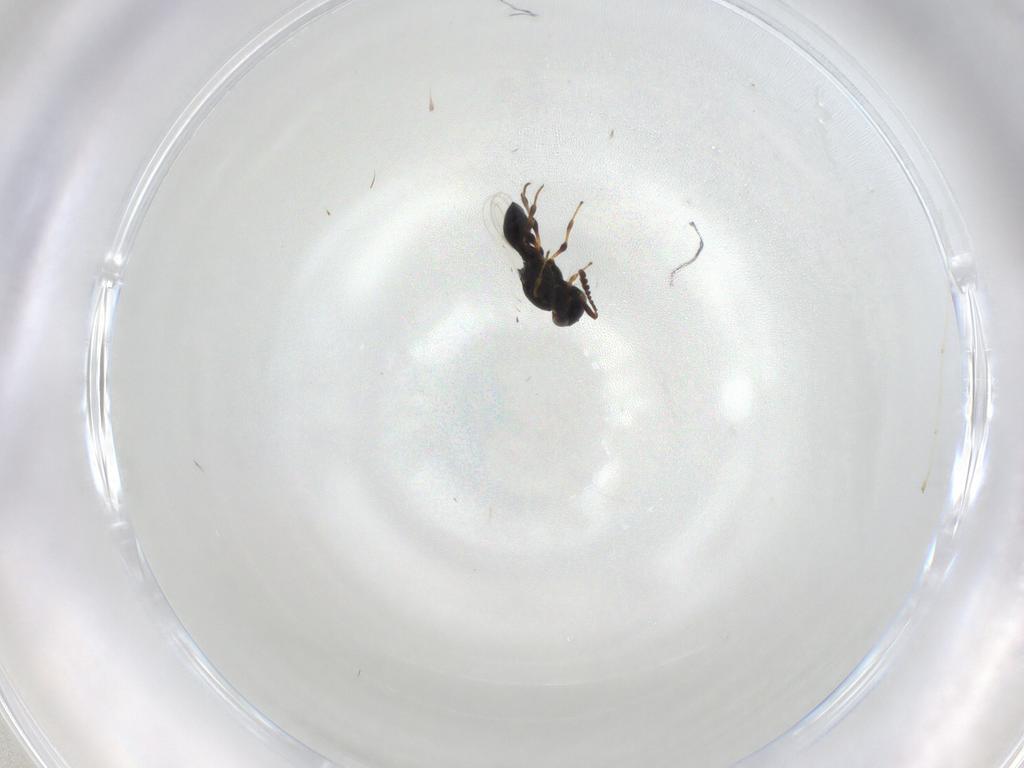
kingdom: Animalia
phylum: Arthropoda
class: Insecta
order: Hymenoptera
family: Platygastridae
